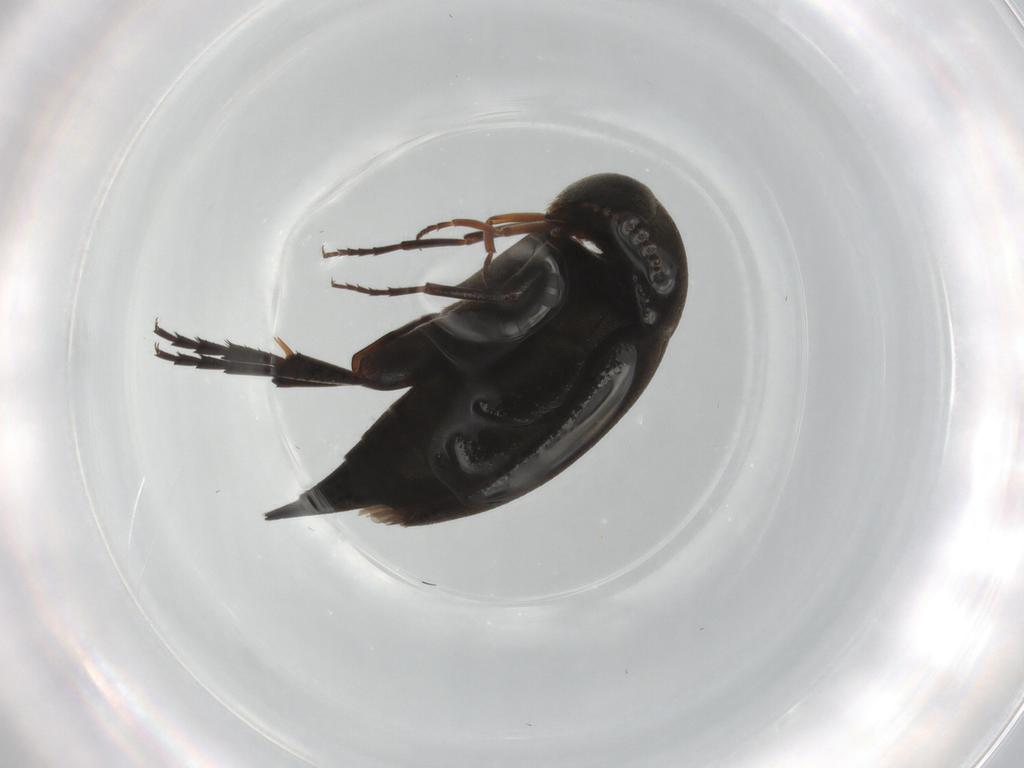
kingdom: Animalia
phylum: Arthropoda
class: Insecta
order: Coleoptera
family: Mordellidae
